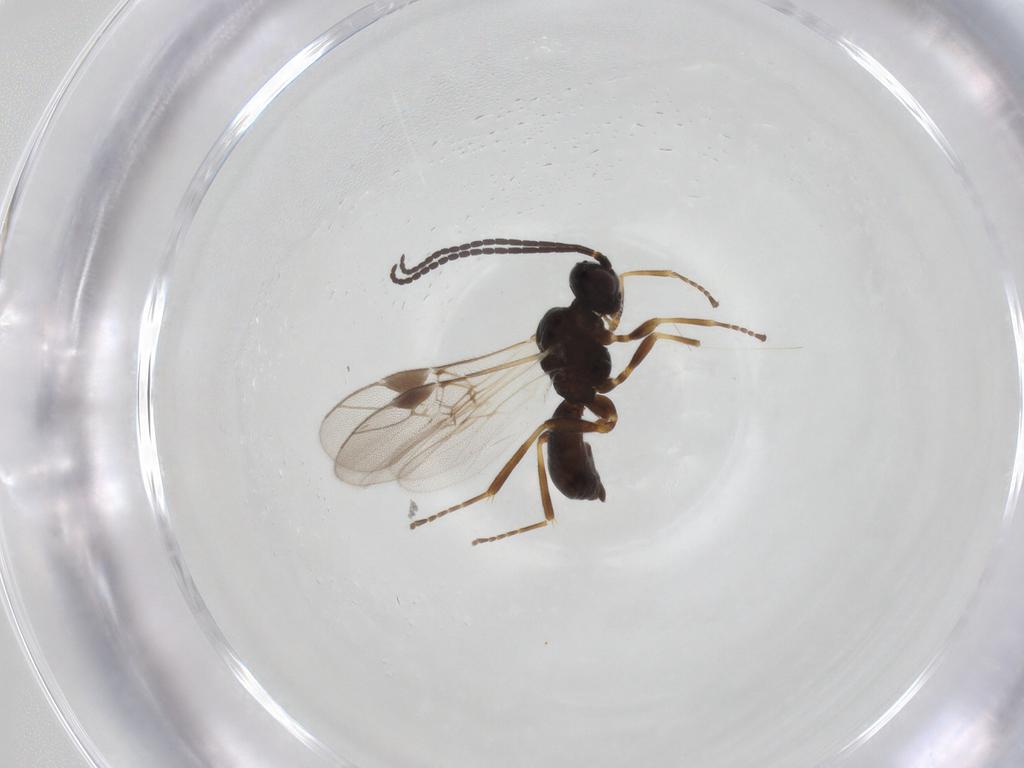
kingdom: Animalia
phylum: Arthropoda
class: Insecta
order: Hymenoptera
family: Braconidae
